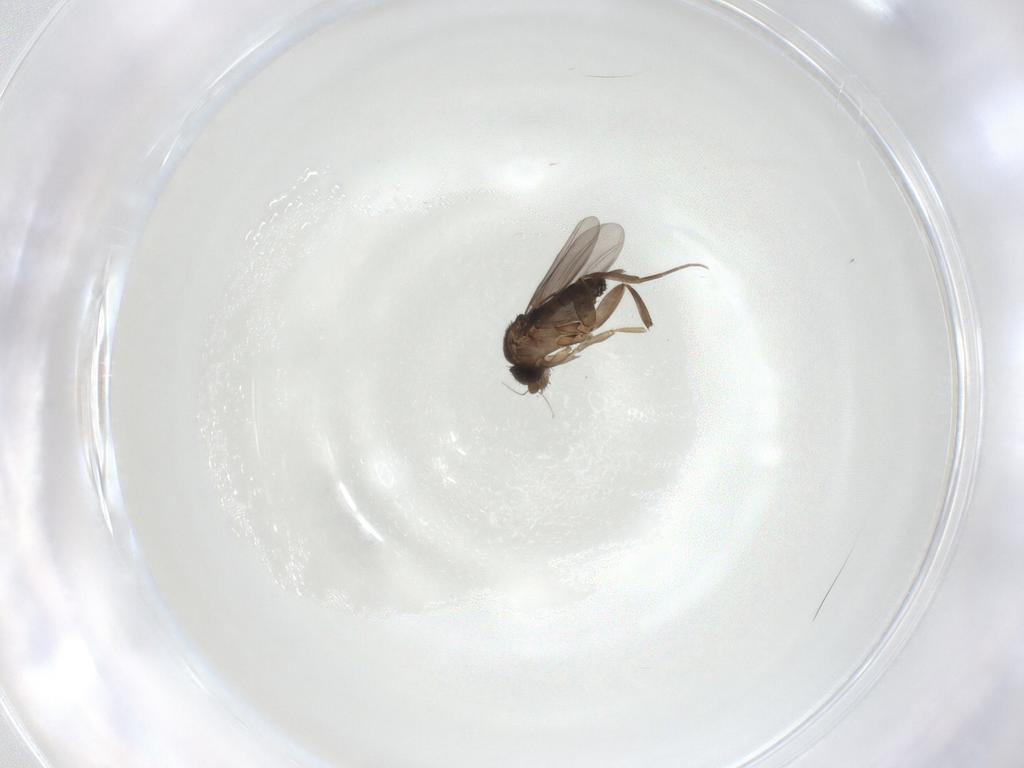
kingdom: Animalia
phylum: Arthropoda
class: Insecta
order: Diptera
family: Phoridae
